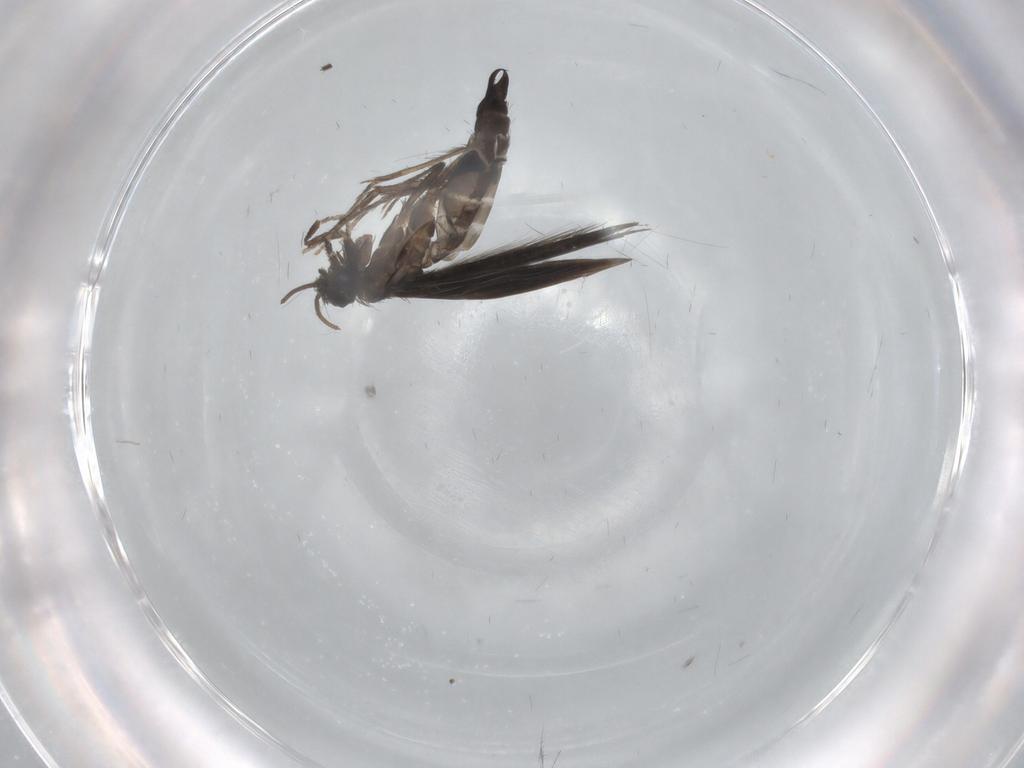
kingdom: Animalia
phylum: Arthropoda
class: Insecta
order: Trichoptera
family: Hydroptilidae
